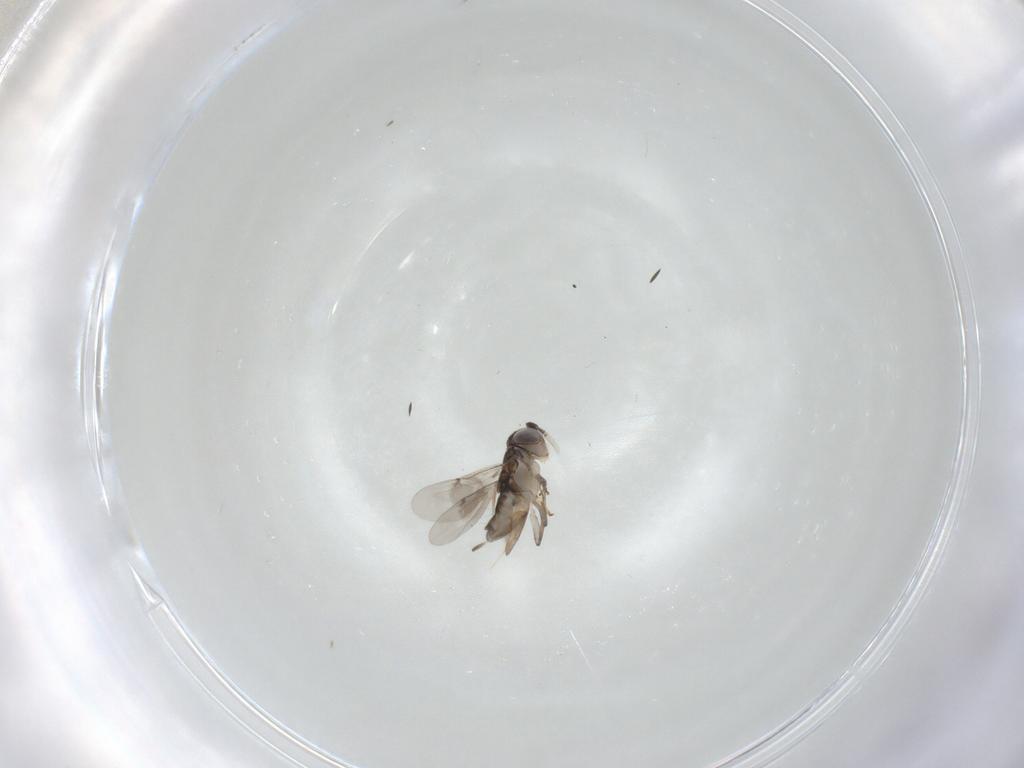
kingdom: Animalia
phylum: Arthropoda
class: Insecta
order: Hymenoptera
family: Encyrtidae
